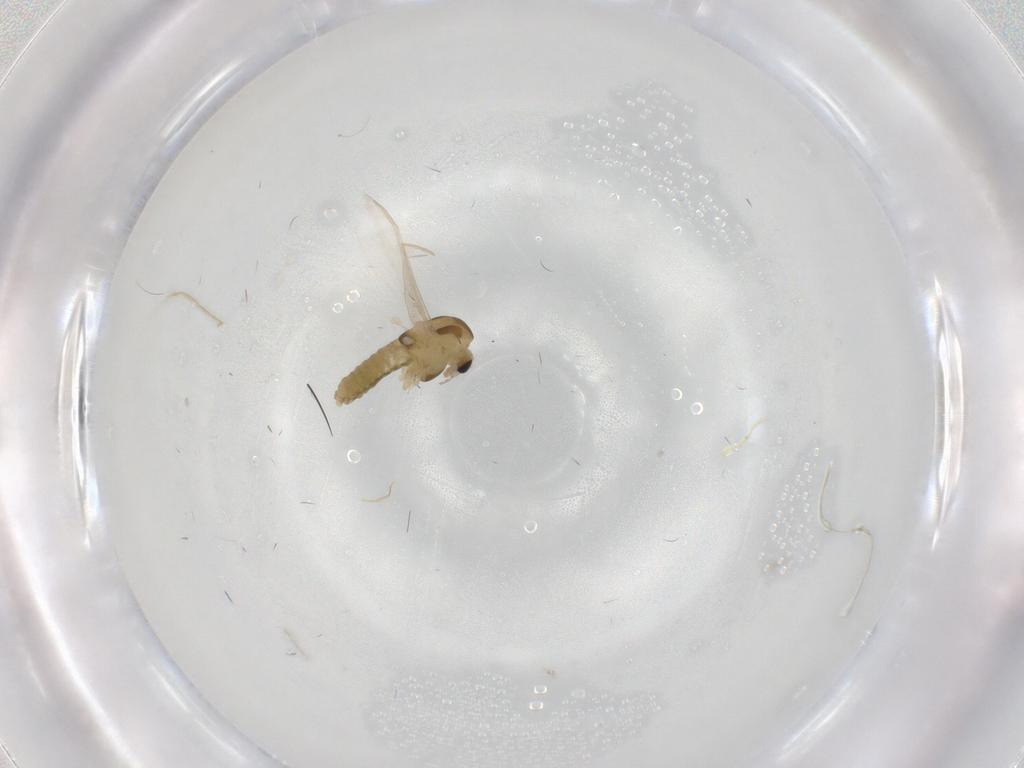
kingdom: Animalia
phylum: Arthropoda
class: Insecta
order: Diptera
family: Chironomidae
